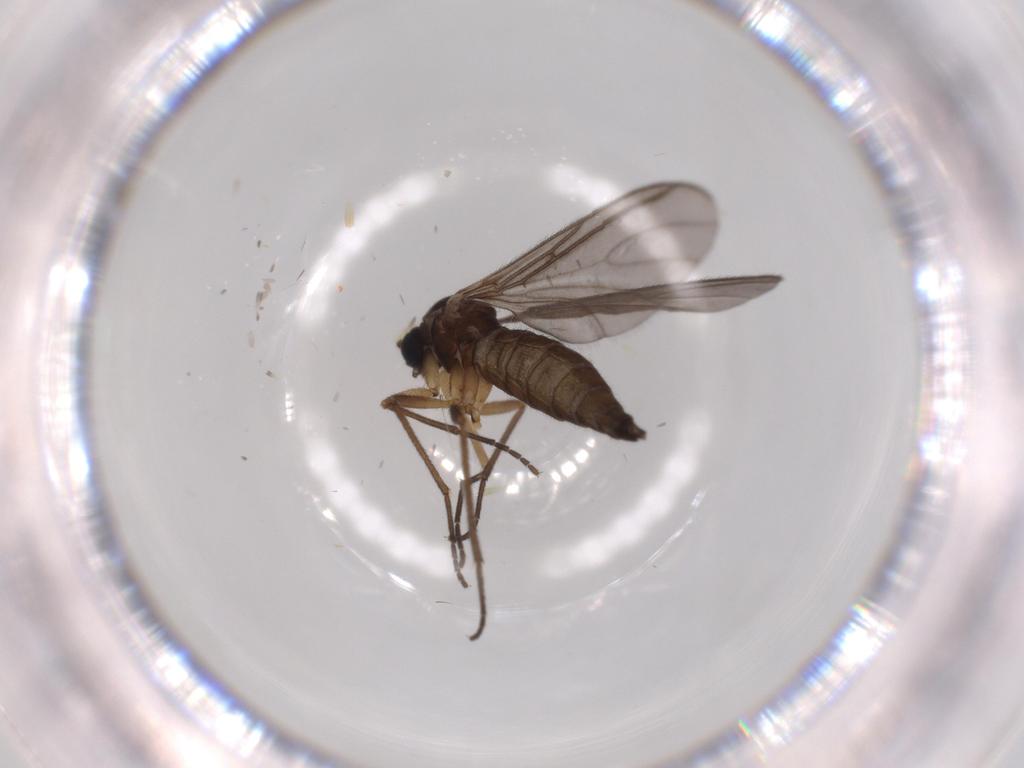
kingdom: Animalia
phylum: Arthropoda
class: Insecta
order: Diptera
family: Sciaridae
